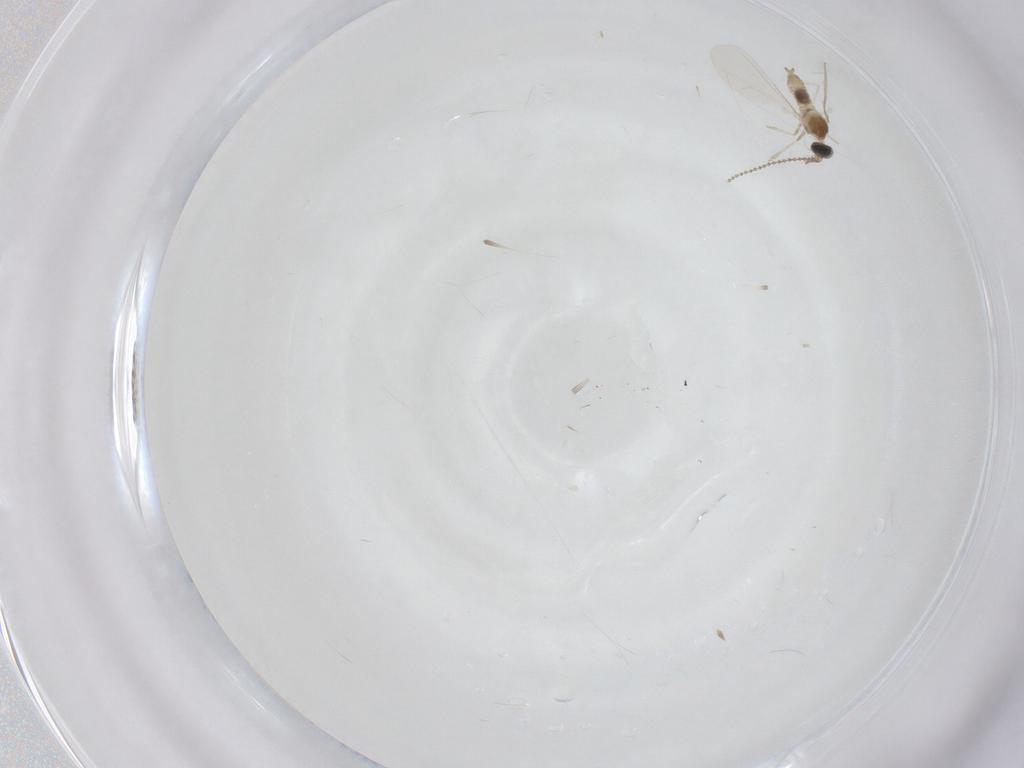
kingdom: Animalia
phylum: Arthropoda
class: Insecta
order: Diptera
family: Cecidomyiidae
